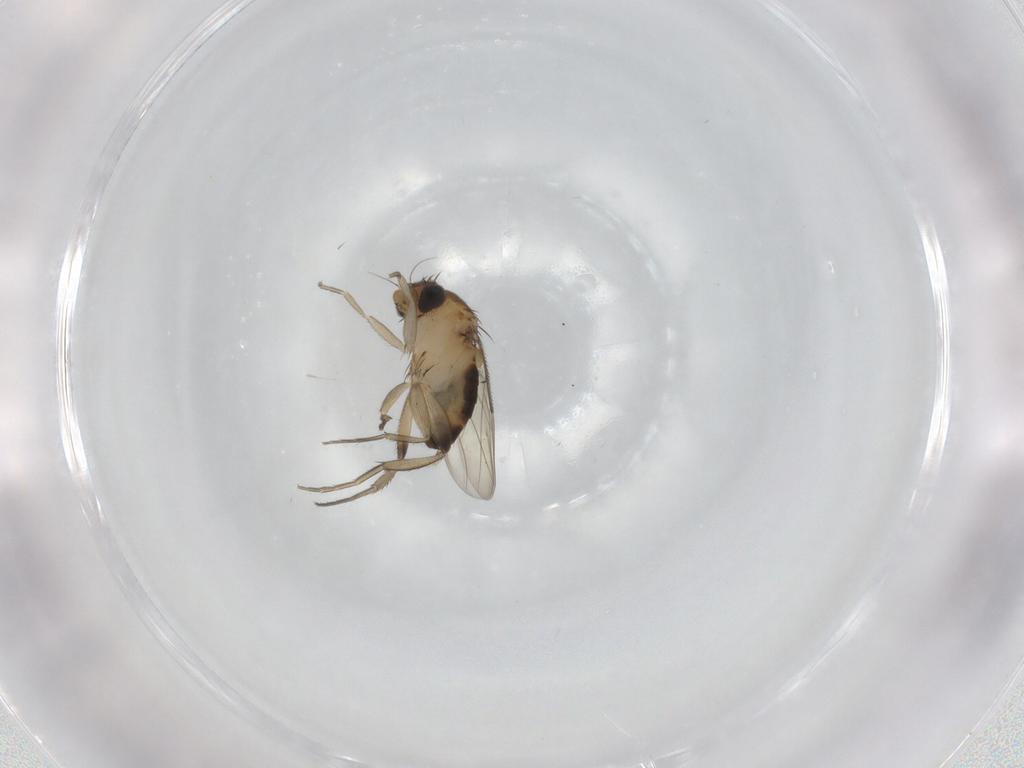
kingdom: Animalia
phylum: Arthropoda
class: Insecta
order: Diptera
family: Phoridae
